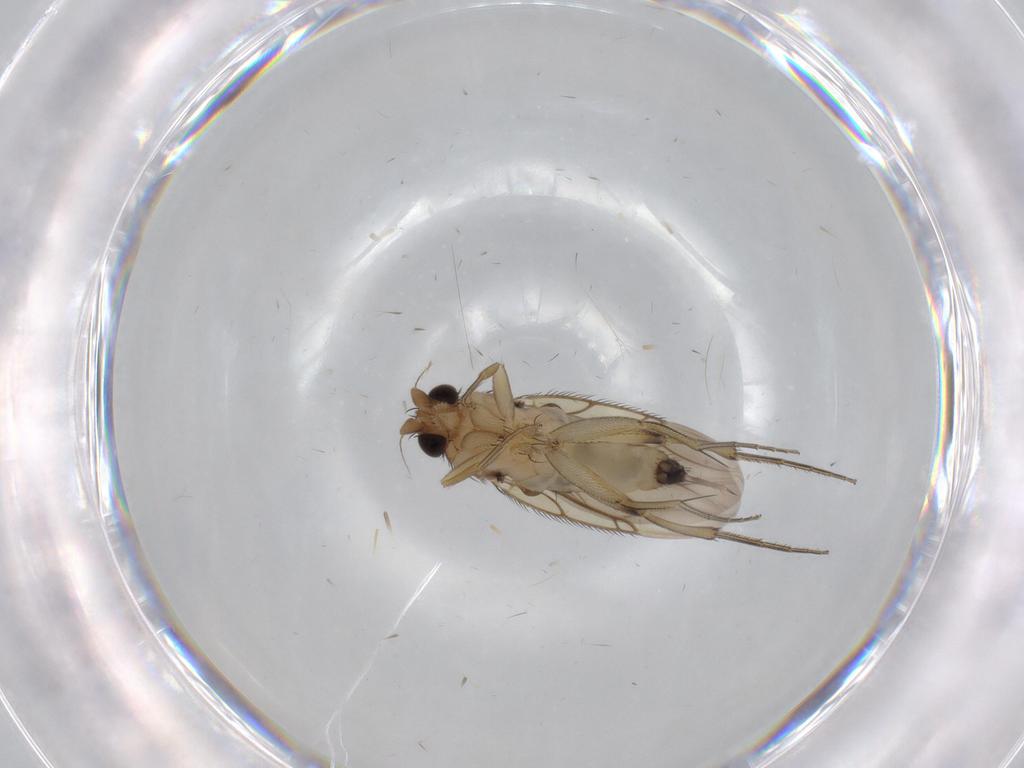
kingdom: Animalia
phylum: Arthropoda
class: Insecta
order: Diptera
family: Phoridae
